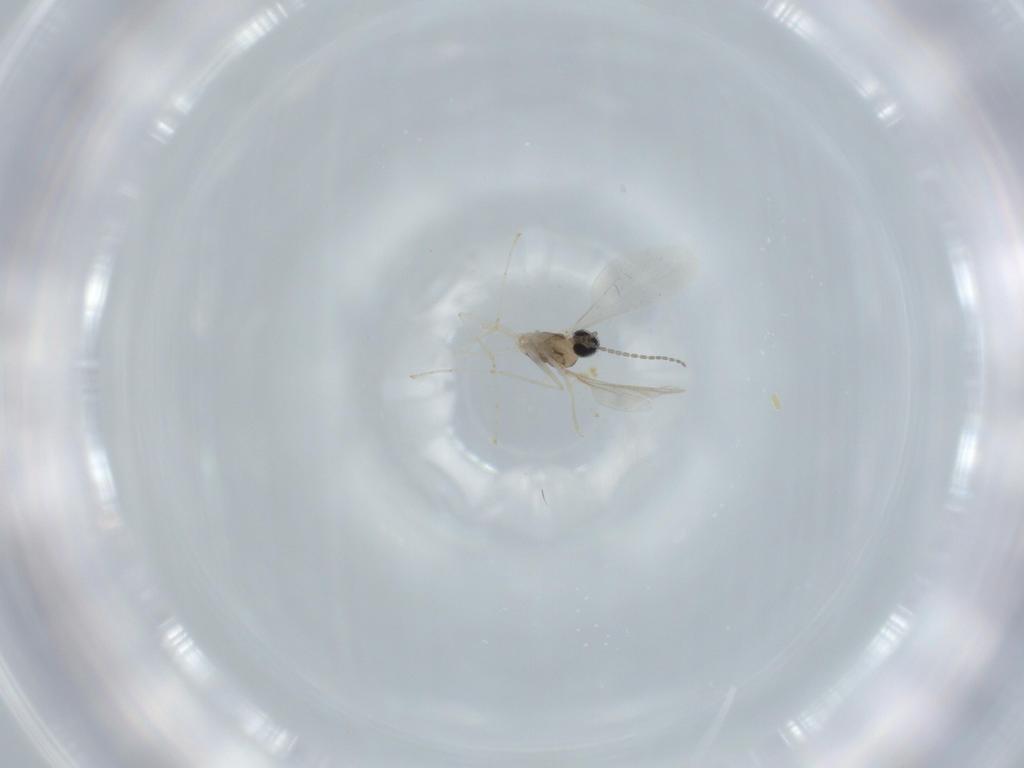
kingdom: Animalia
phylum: Arthropoda
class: Insecta
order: Diptera
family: Cecidomyiidae
